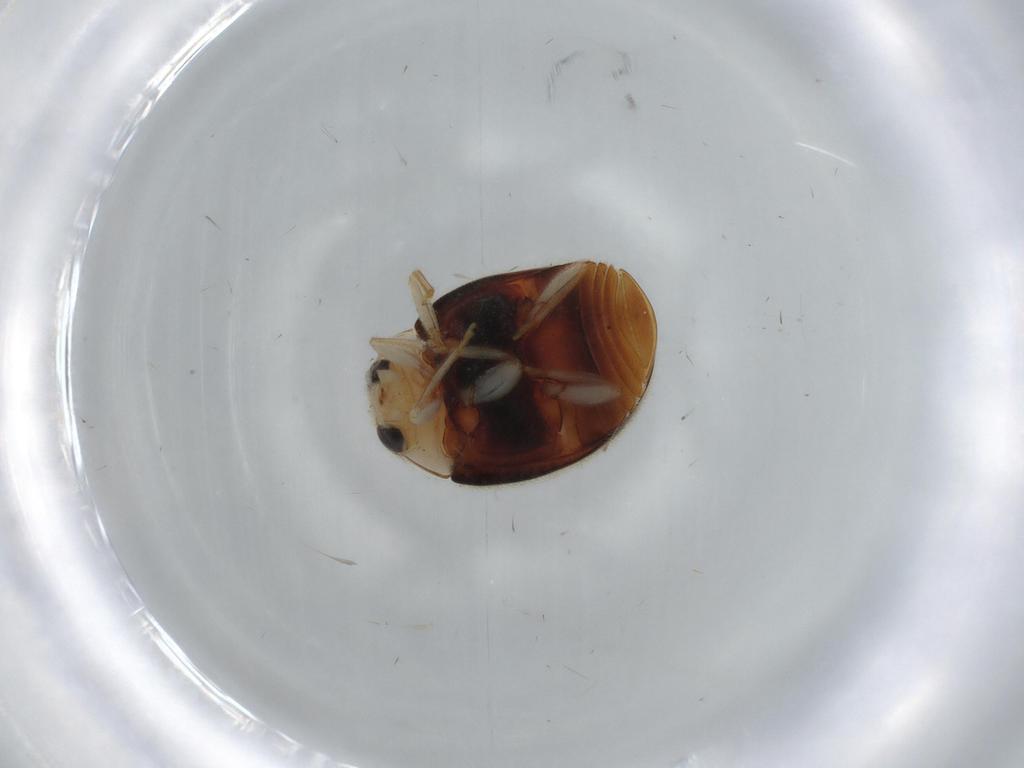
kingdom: Animalia
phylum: Arthropoda
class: Insecta
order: Coleoptera
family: Coccinellidae
